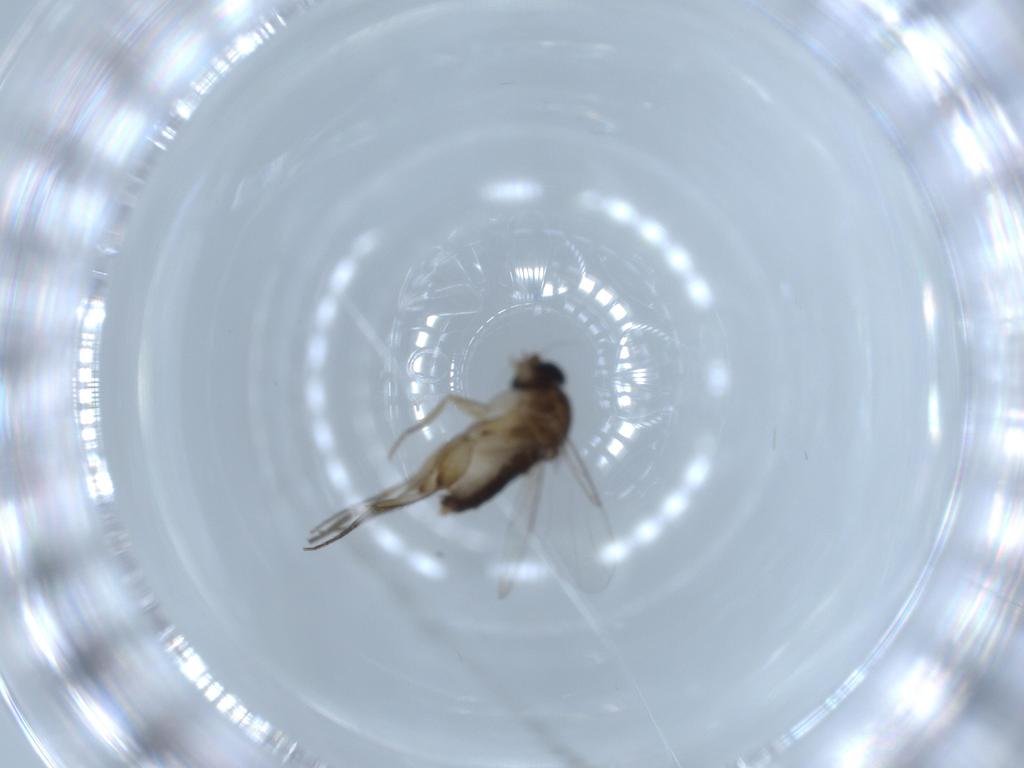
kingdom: Animalia
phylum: Arthropoda
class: Insecta
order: Diptera
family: Phoridae
